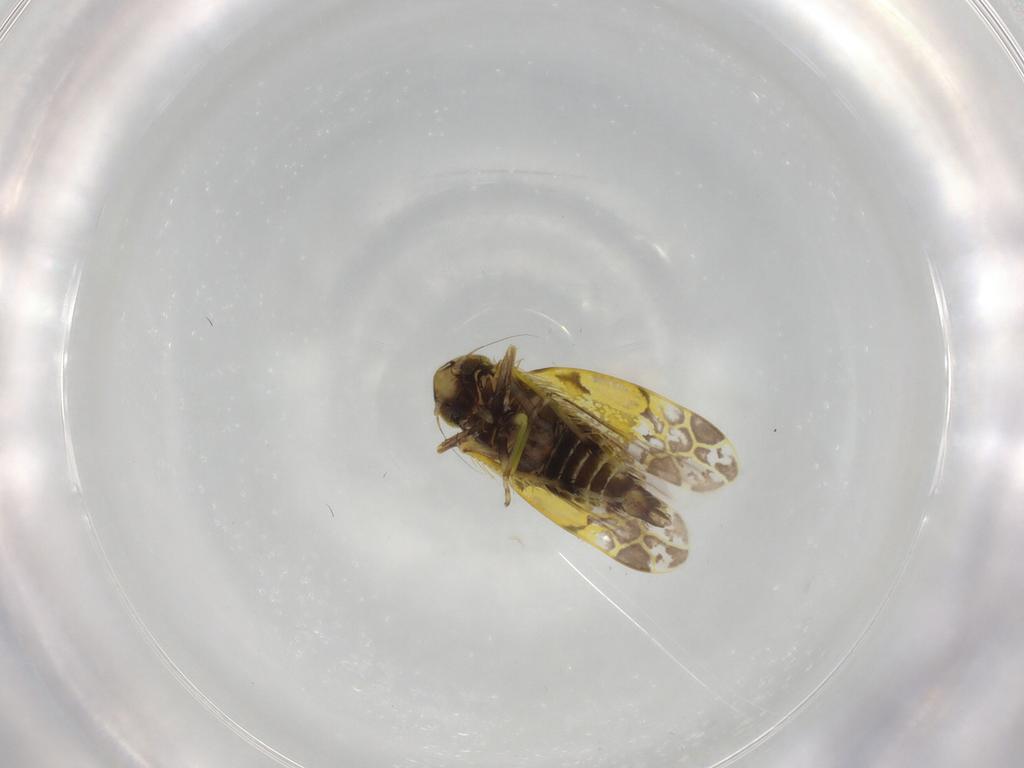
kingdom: Animalia
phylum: Arthropoda
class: Insecta
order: Hemiptera
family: Cicadellidae
